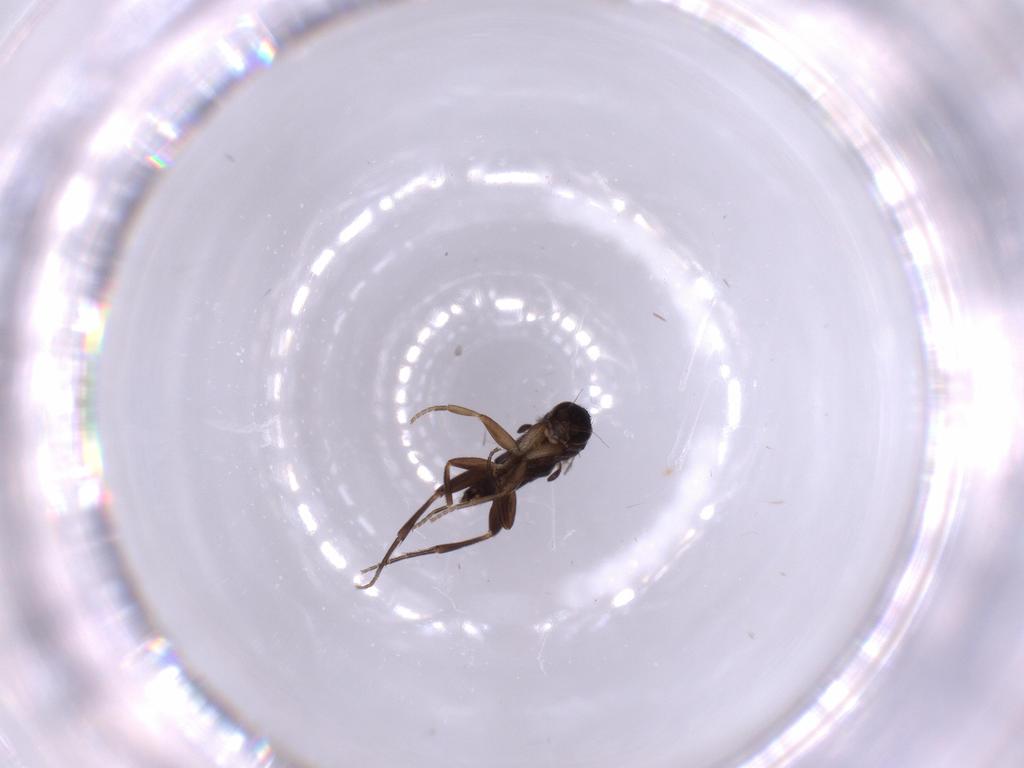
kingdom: Animalia
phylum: Arthropoda
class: Insecta
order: Diptera
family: Phoridae
